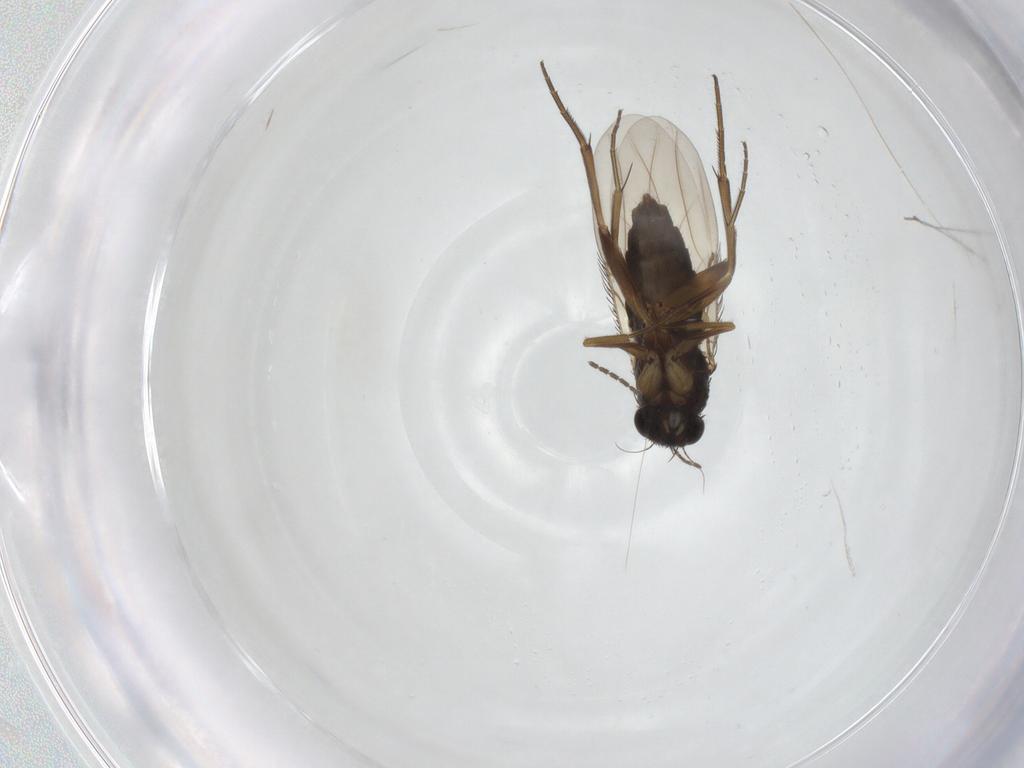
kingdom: Animalia
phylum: Arthropoda
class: Insecta
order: Diptera
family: Phoridae
